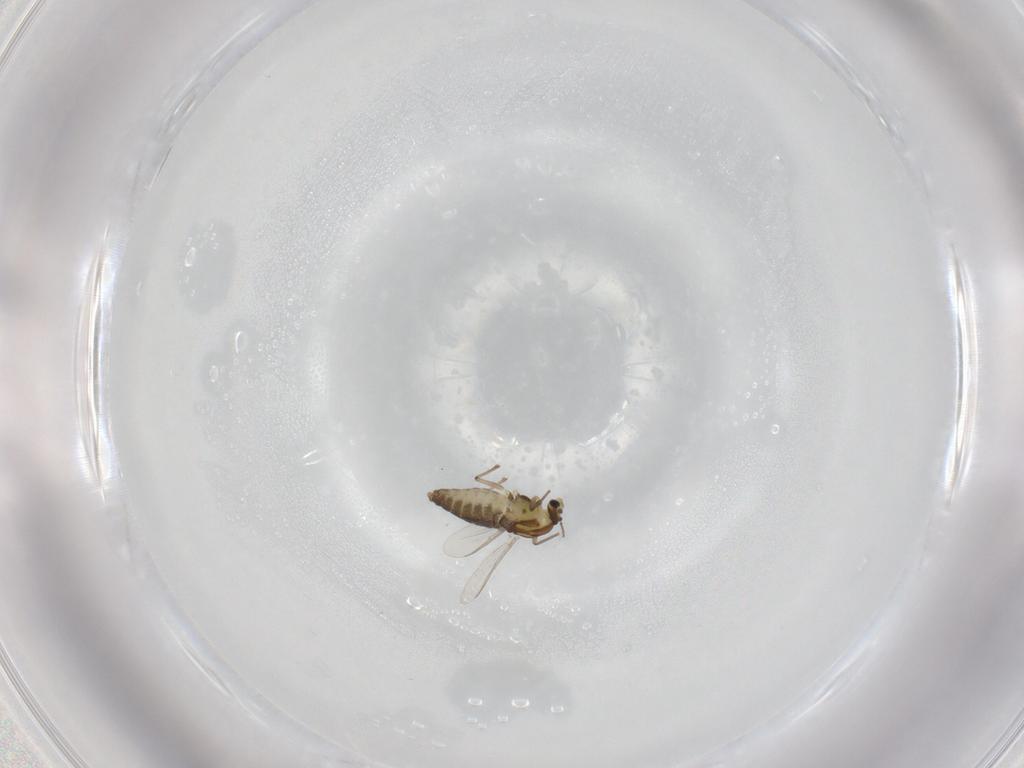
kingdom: Animalia
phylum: Arthropoda
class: Insecta
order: Diptera
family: Chironomidae
